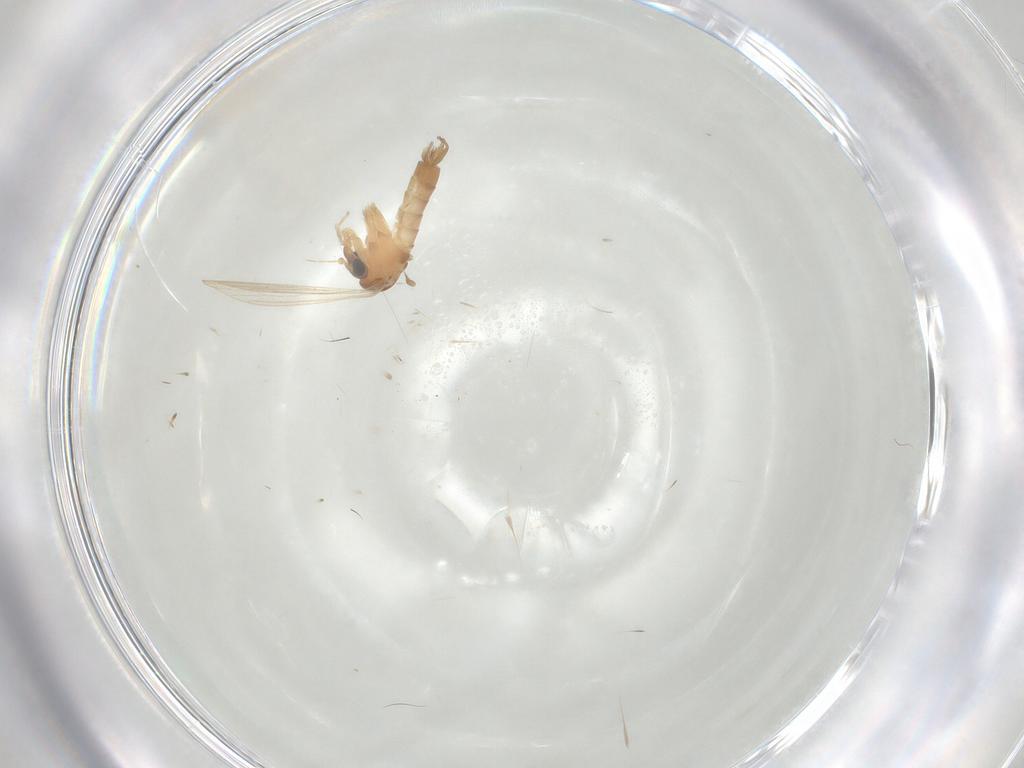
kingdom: Animalia
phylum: Arthropoda
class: Insecta
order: Diptera
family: Psychodidae
